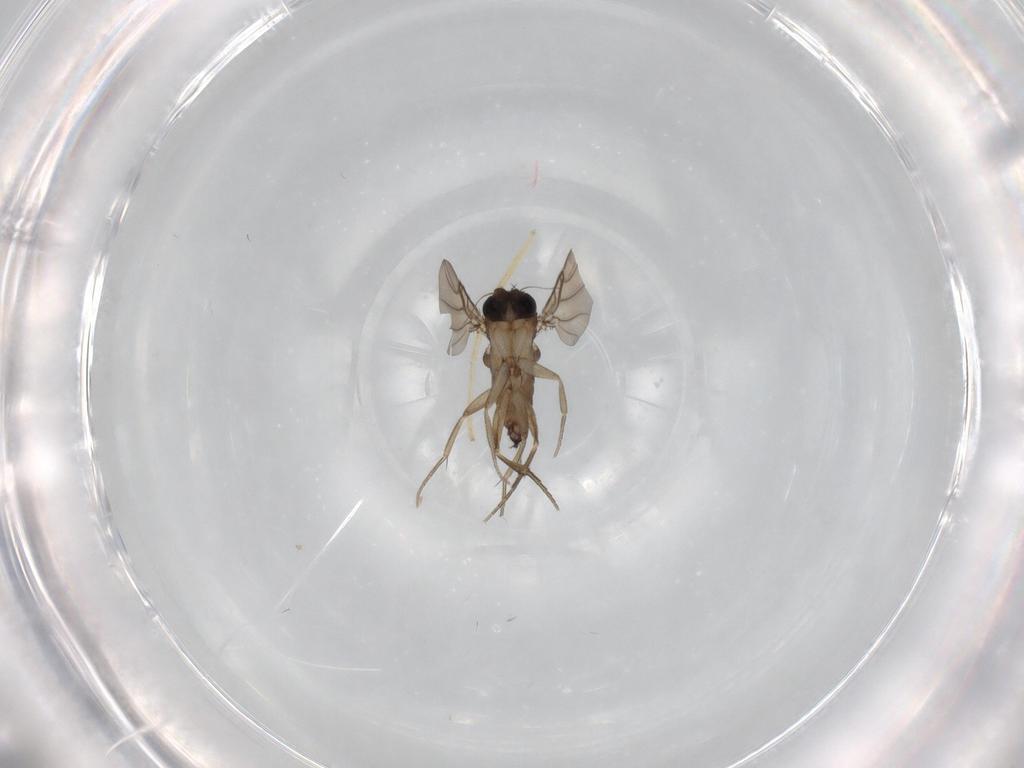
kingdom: Animalia
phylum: Arthropoda
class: Insecta
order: Diptera
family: Phoridae
